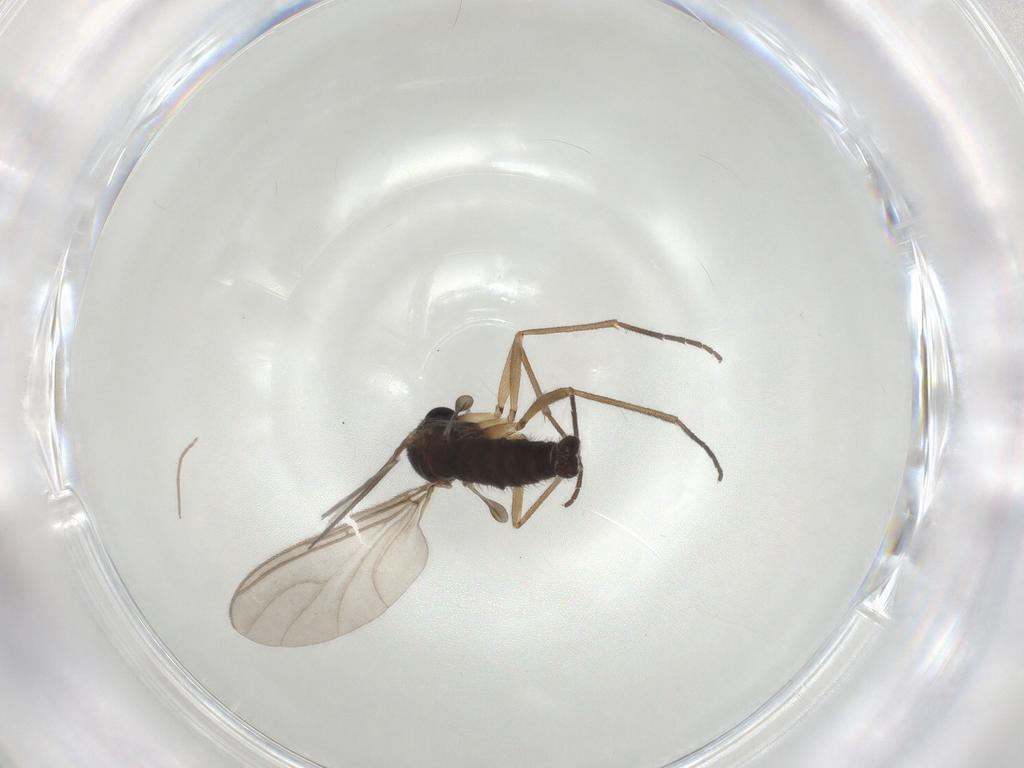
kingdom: Animalia
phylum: Arthropoda
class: Insecta
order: Diptera
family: Sciaridae
